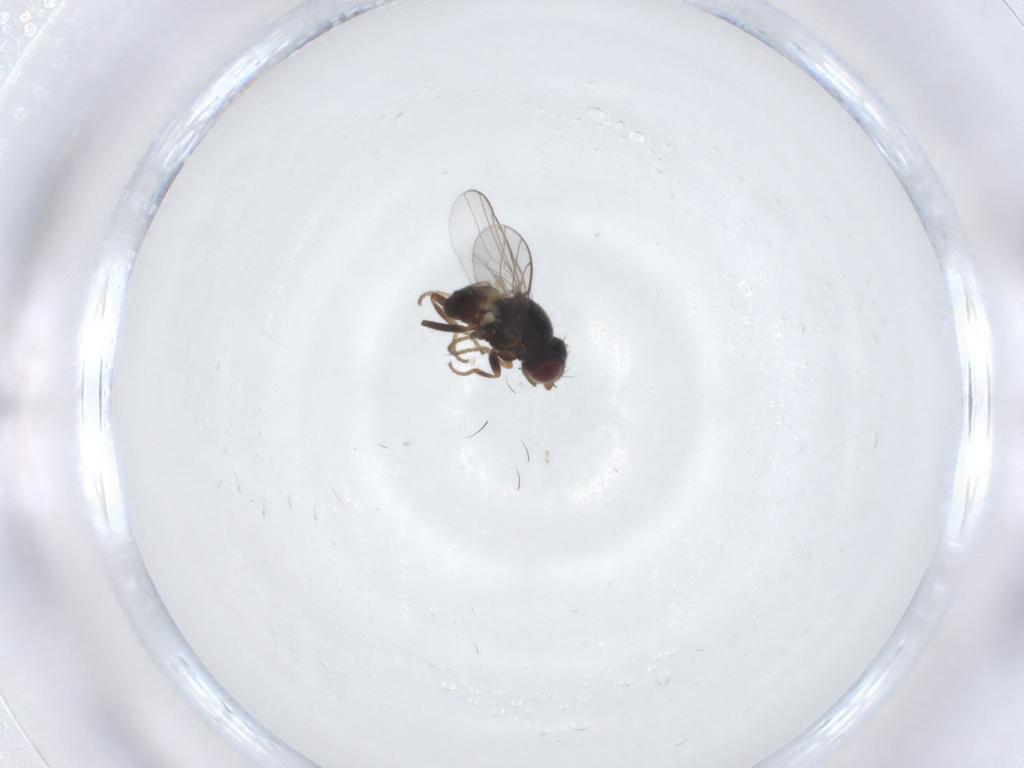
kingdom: Animalia
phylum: Arthropoda
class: Insecta
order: Diptera
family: Chloropidae
